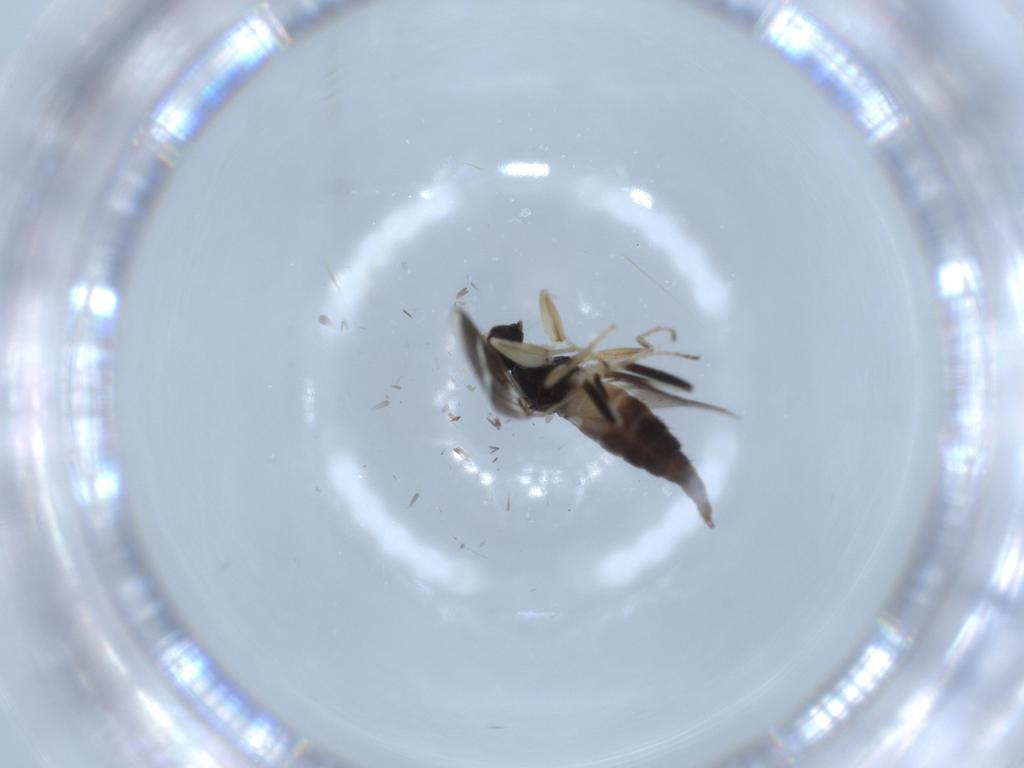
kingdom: Animalia
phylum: Arthropoda
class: Insecta
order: Diptera
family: Hybotidae
